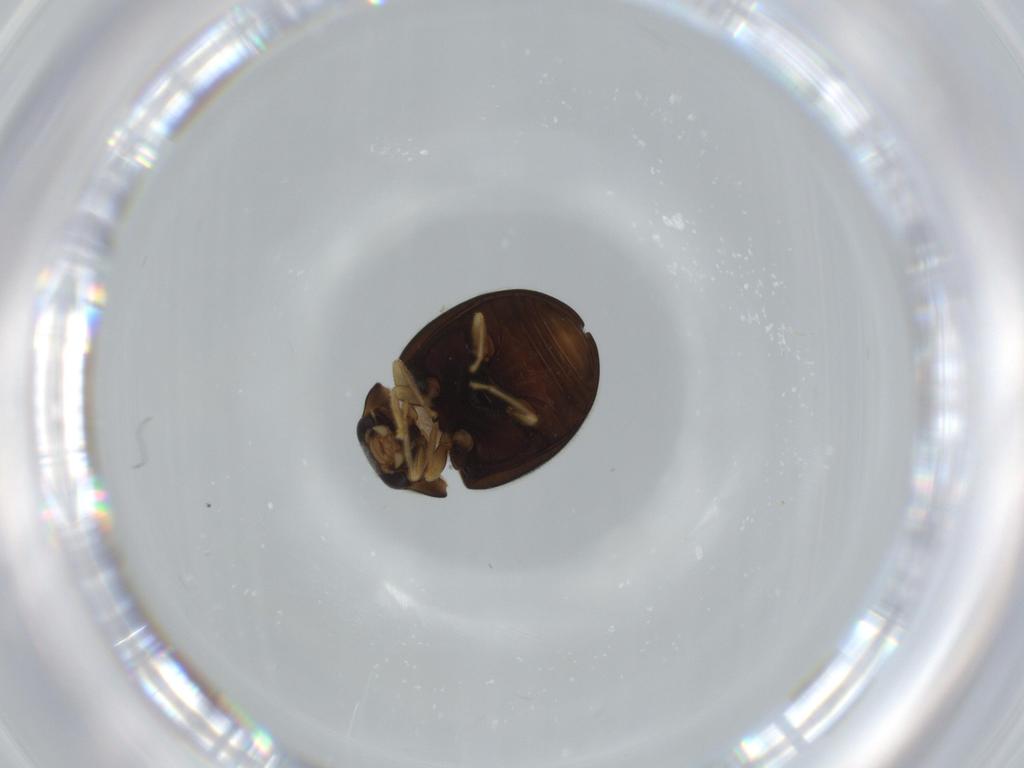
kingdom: Animalia
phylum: Arthropoda
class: Insecta
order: Coleoptera
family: Coccinellidae
